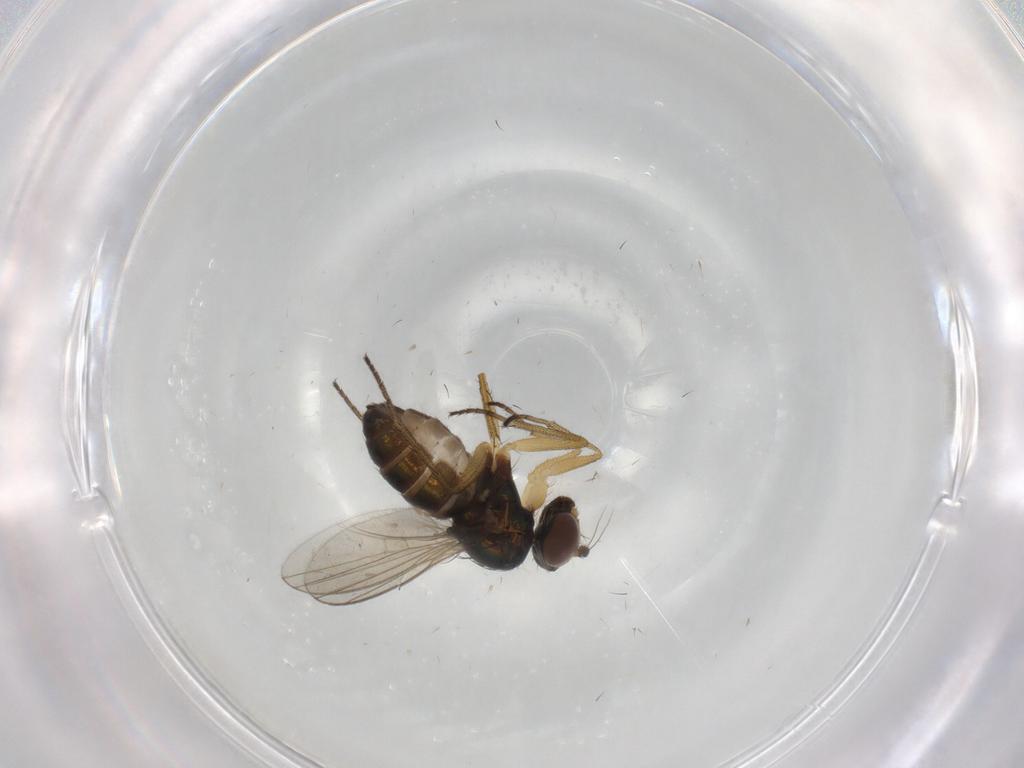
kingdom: Animalia
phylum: Arthropoda
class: Insecta
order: Diptera
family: Dolichopodidae
